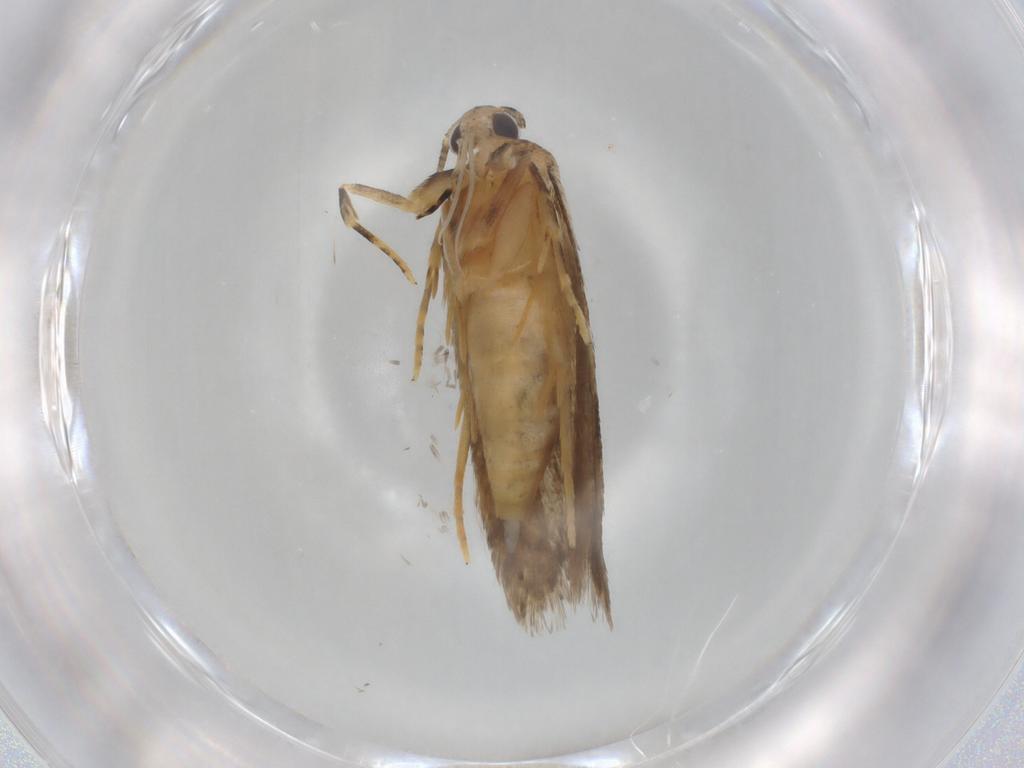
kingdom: Animalia
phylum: Arthropoda
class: Insecta
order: Lepidoptera
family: Autostichidae
